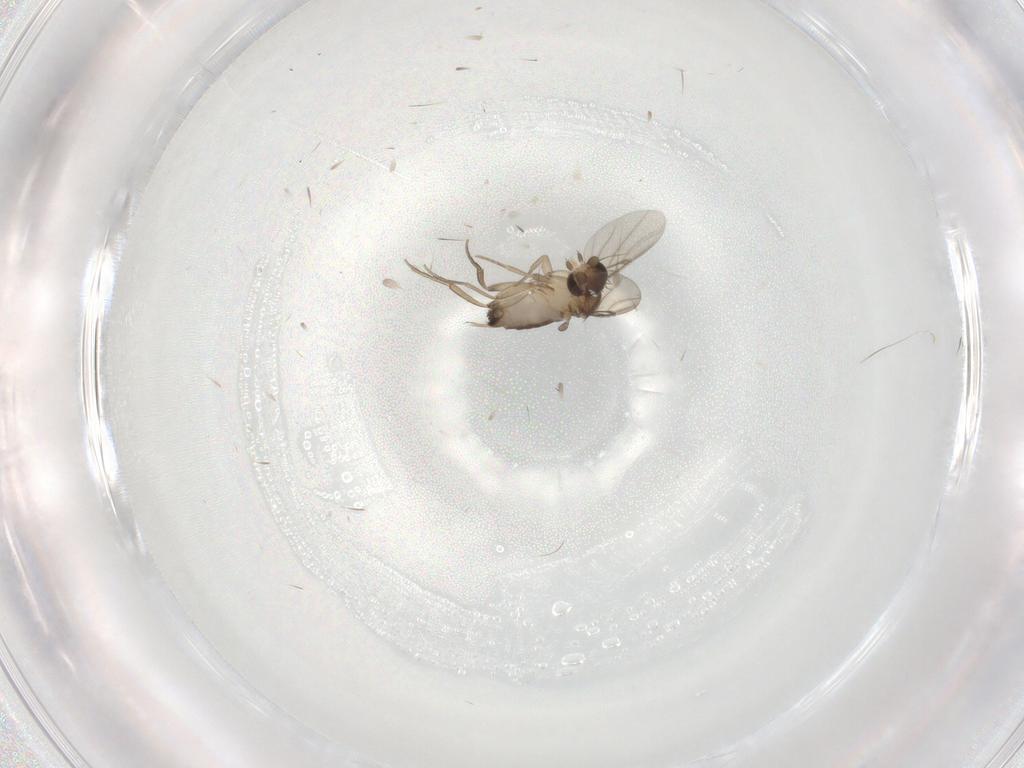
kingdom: Animalia
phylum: Arthropoda
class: Insecta
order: Diptera
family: Phoridae
